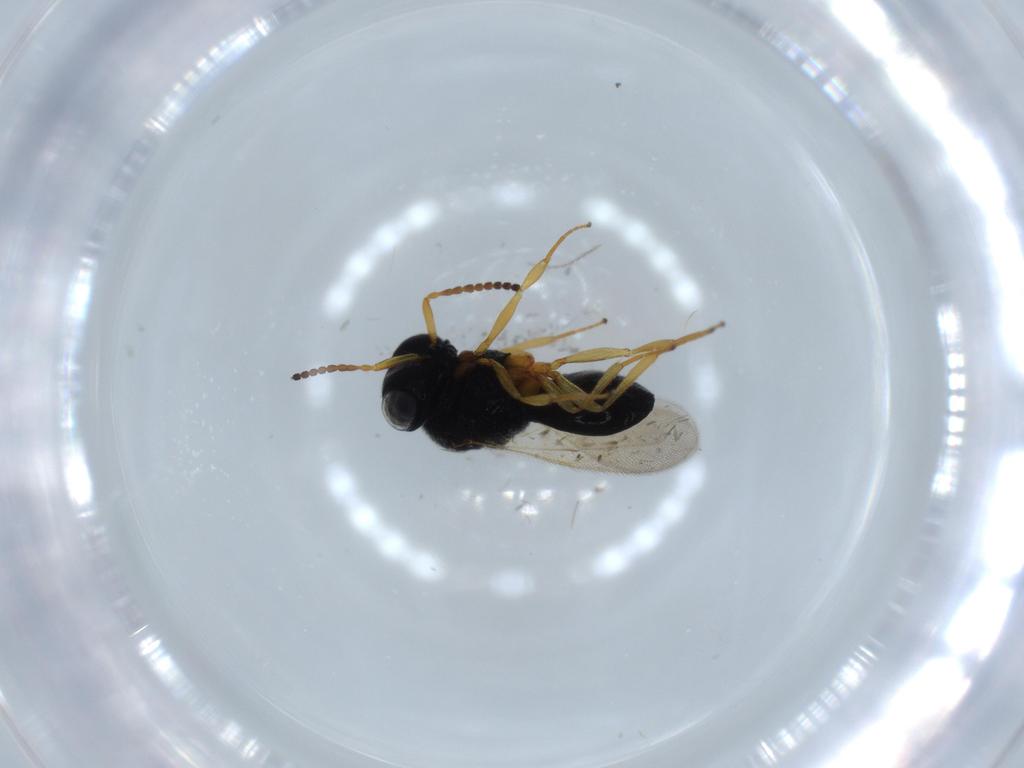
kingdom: Animalia
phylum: Arthropoda
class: Insecta
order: Hymenoptera
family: Scelionidae
